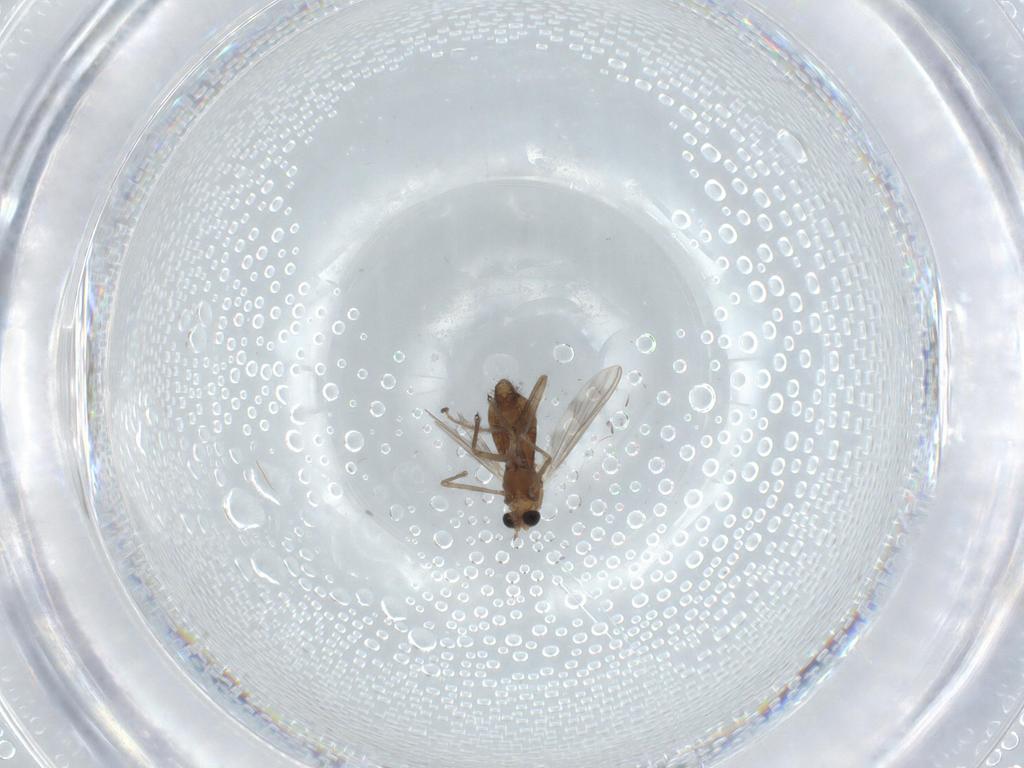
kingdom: Animalia
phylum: Arthropoda
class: Insecta
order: Diptera
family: Chironomidae
